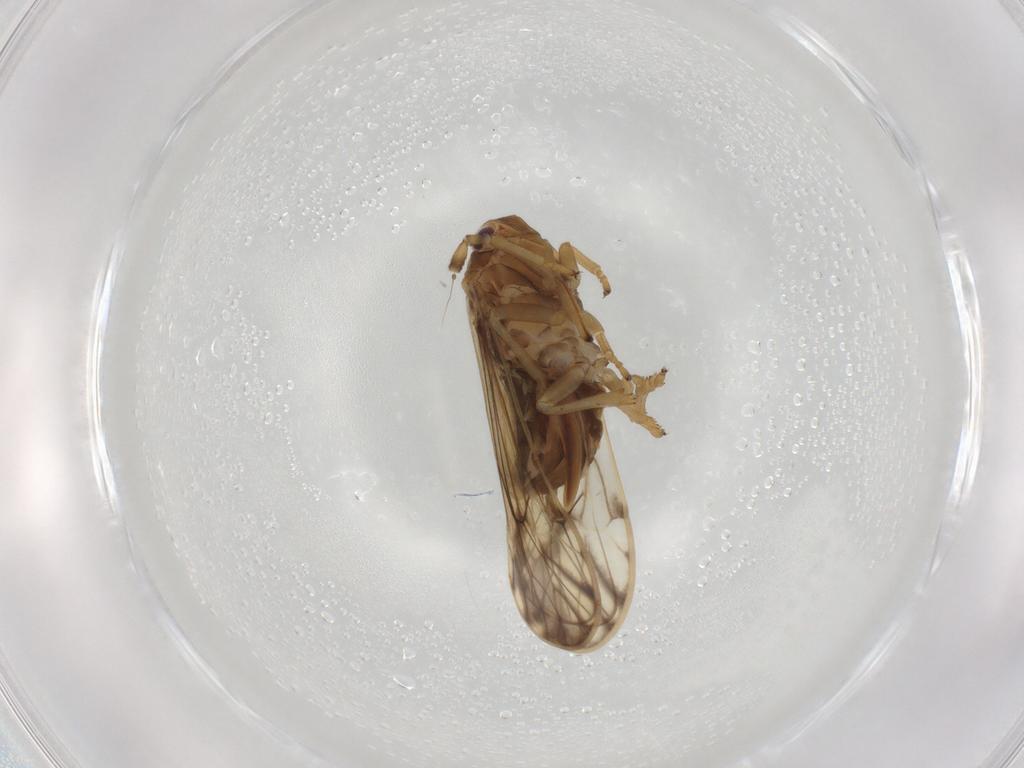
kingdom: Animalia
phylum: Arthropoda
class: Insecta
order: Hemiptera
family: Delphacidae
